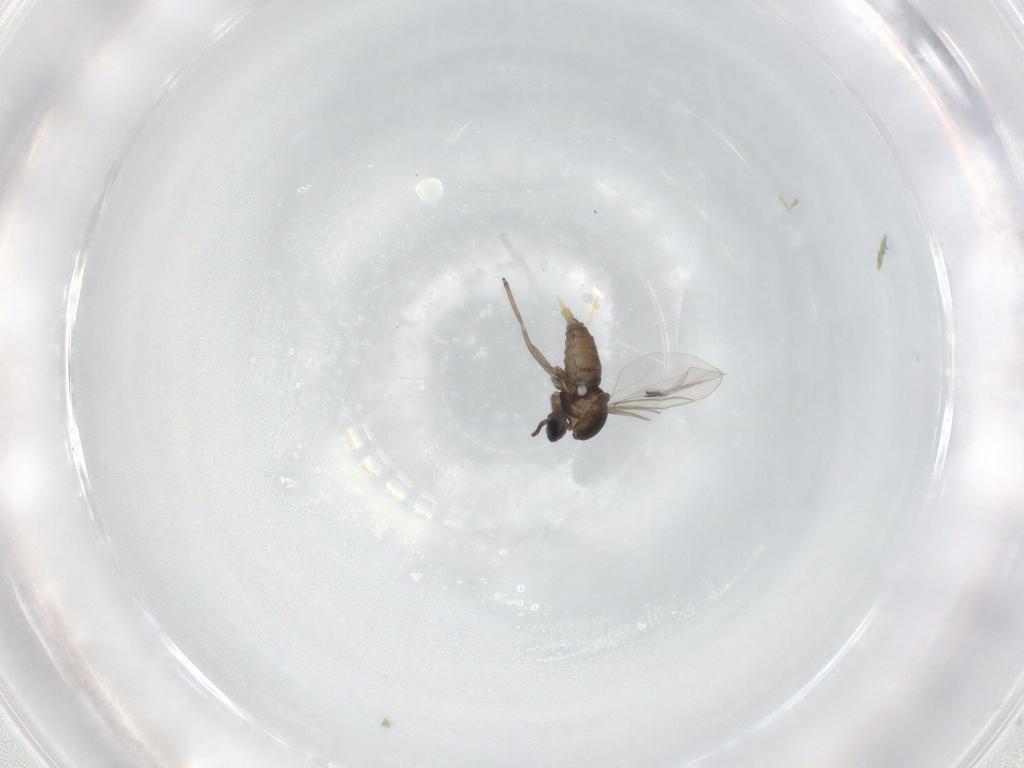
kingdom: Animalia
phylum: Arthropoda
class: Insecta
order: Diptera
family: Cecidomyiidae
